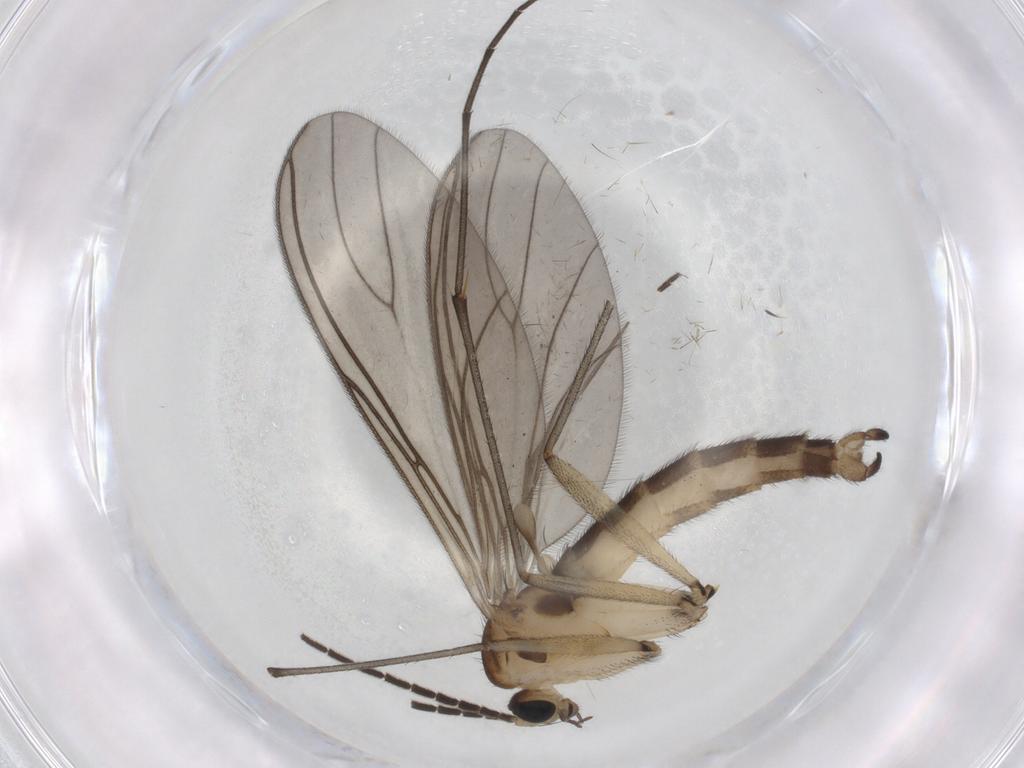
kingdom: Animalia
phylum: Arthropoda
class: Insecta
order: Diptera
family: Sciaridae
